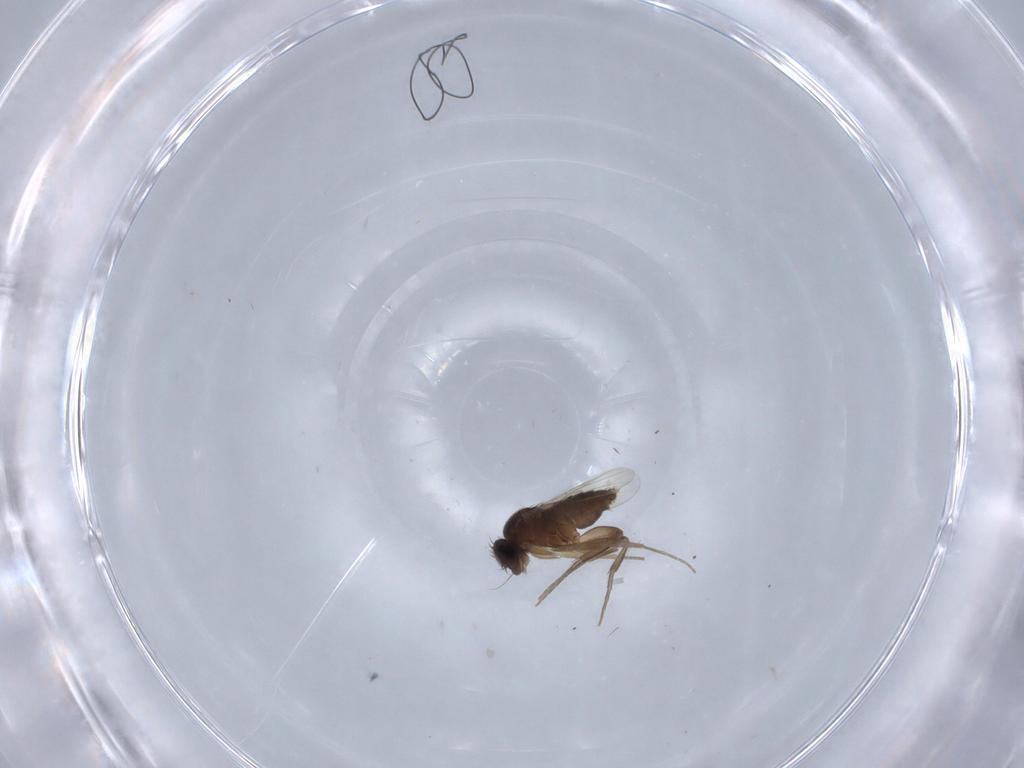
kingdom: Animalia
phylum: Arthropoda
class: Insecta
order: Diptera
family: Phoridae
